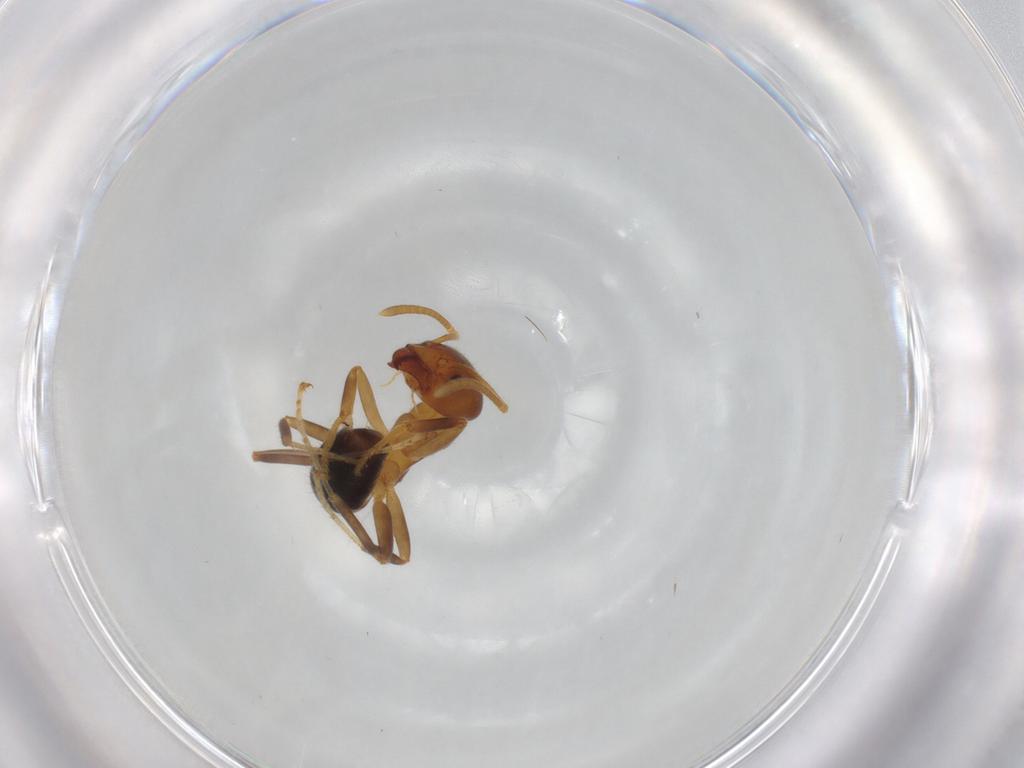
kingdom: Animalia
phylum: Arthropoda
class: Insecta
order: Hymenoptera
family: Formicidae
